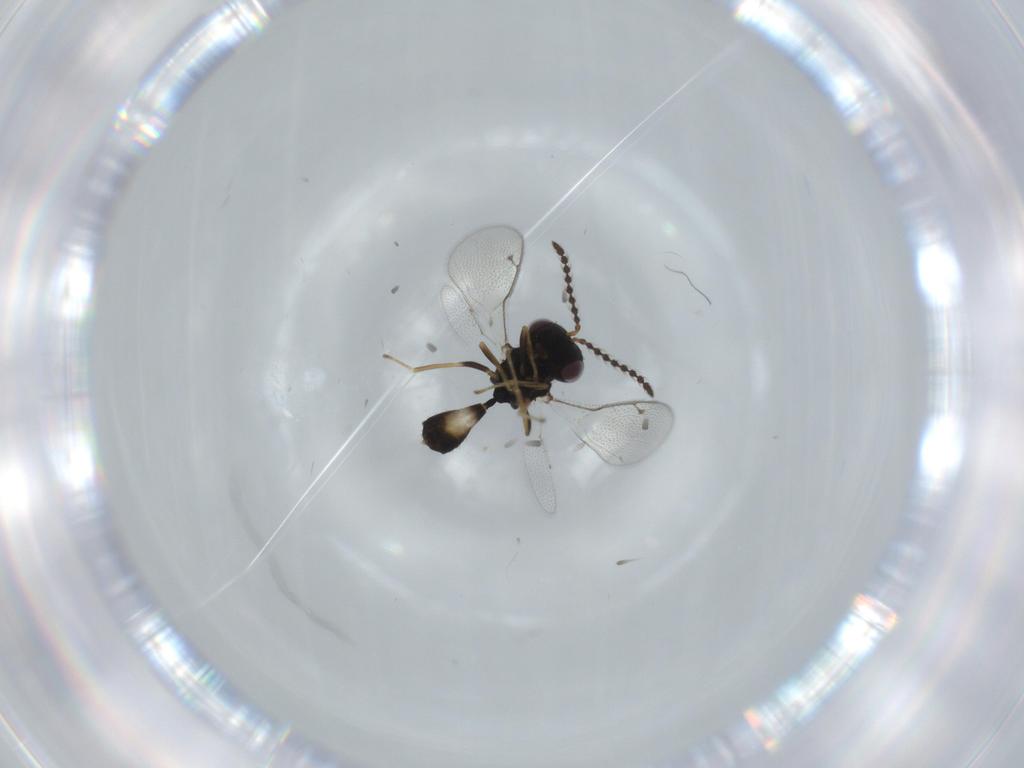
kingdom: Animalia
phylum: Arthropoda
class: Insecta
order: Hymenoptera
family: Pteromalidae
